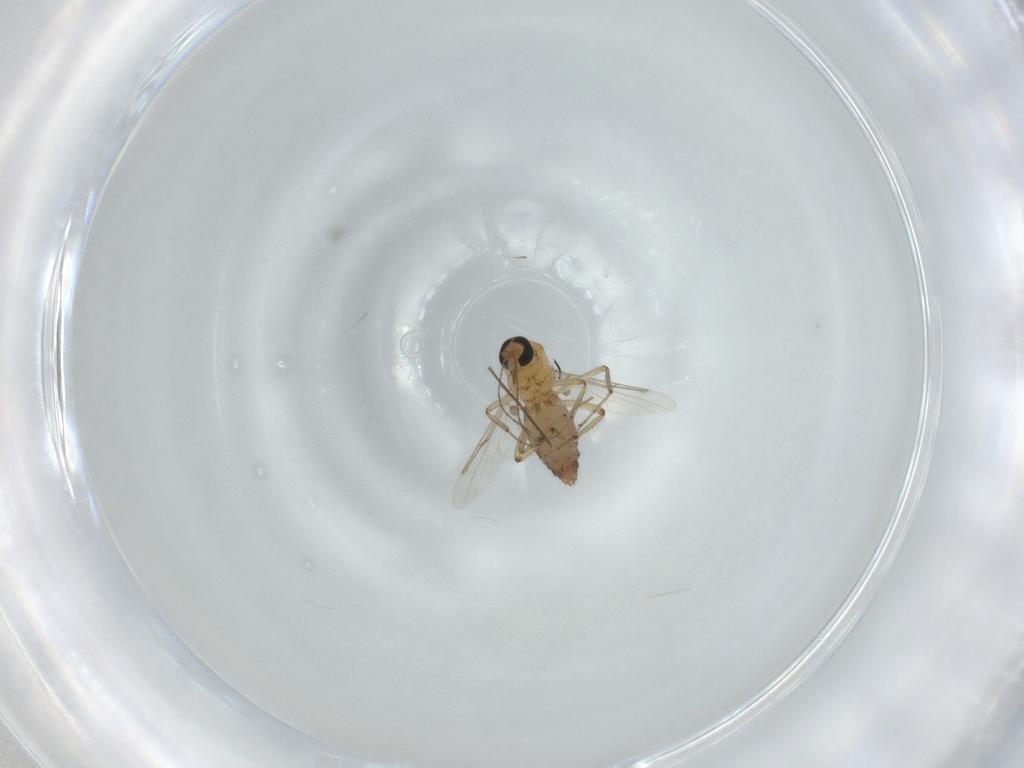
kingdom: Animalia
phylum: Arthropoda
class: Insecta
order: Diptera
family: Ceratopogonidae
